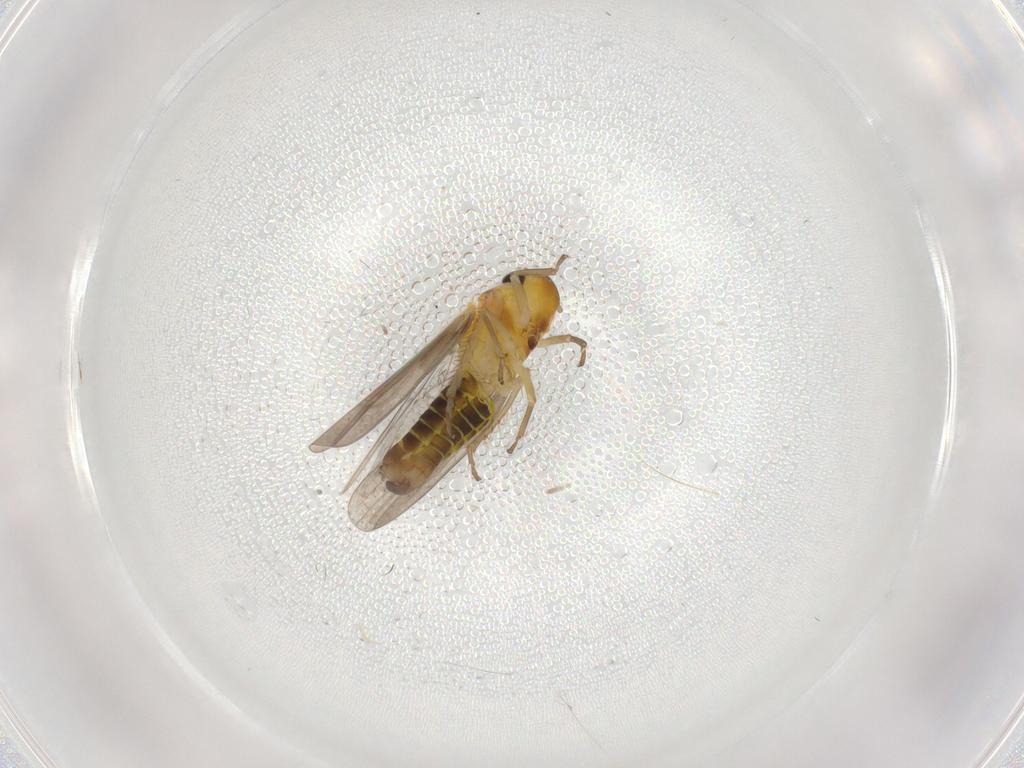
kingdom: Animalia
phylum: Arthropoda
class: Insecta
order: Hemiptera
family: Cicadellidae
